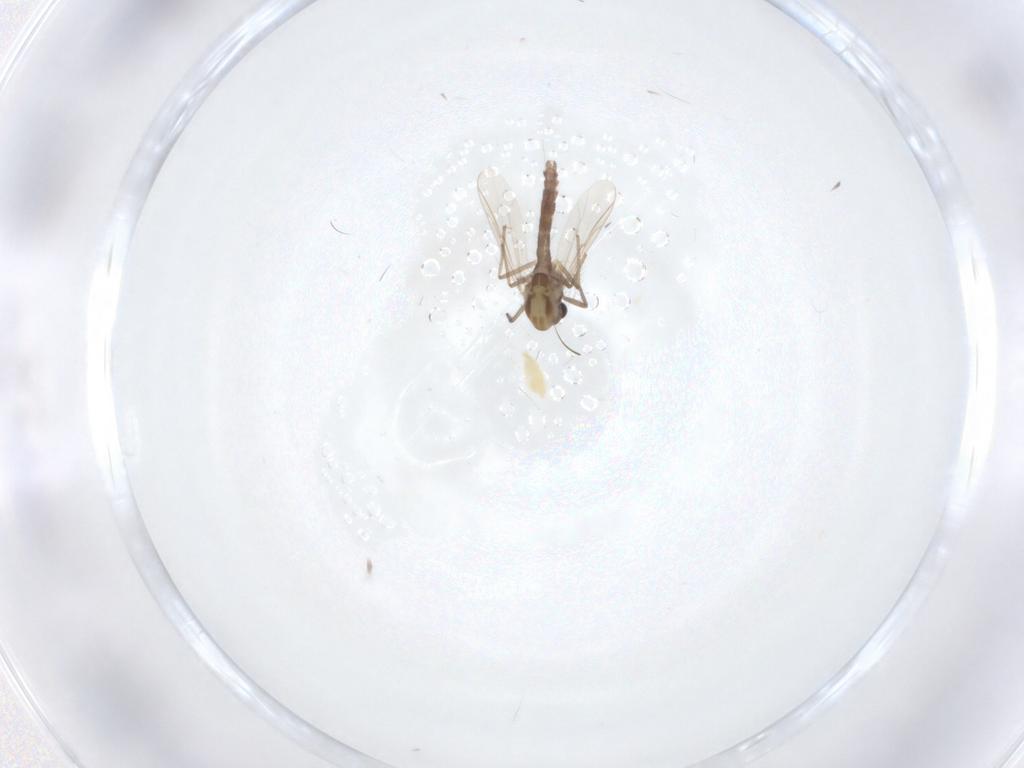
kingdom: Animalia
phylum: Arthropoda
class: Insecta
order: Diptera
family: Chironomidae
